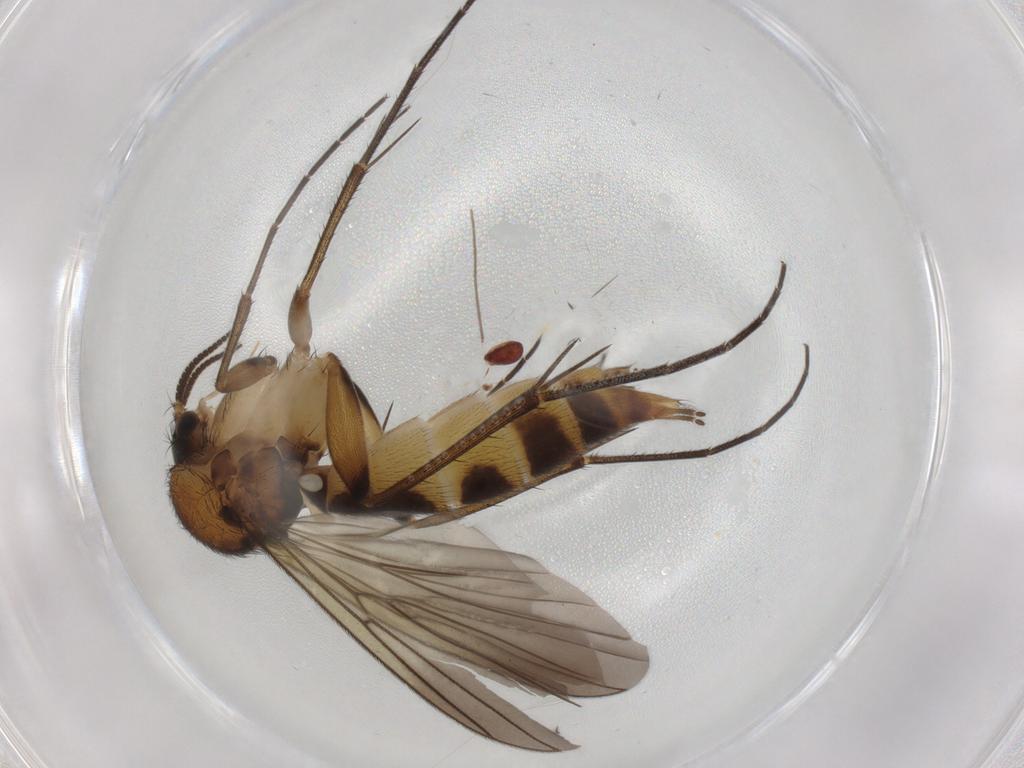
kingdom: Animalia
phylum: Arthropoda
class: Insecta
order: Diptera
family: Mycetophilidae
